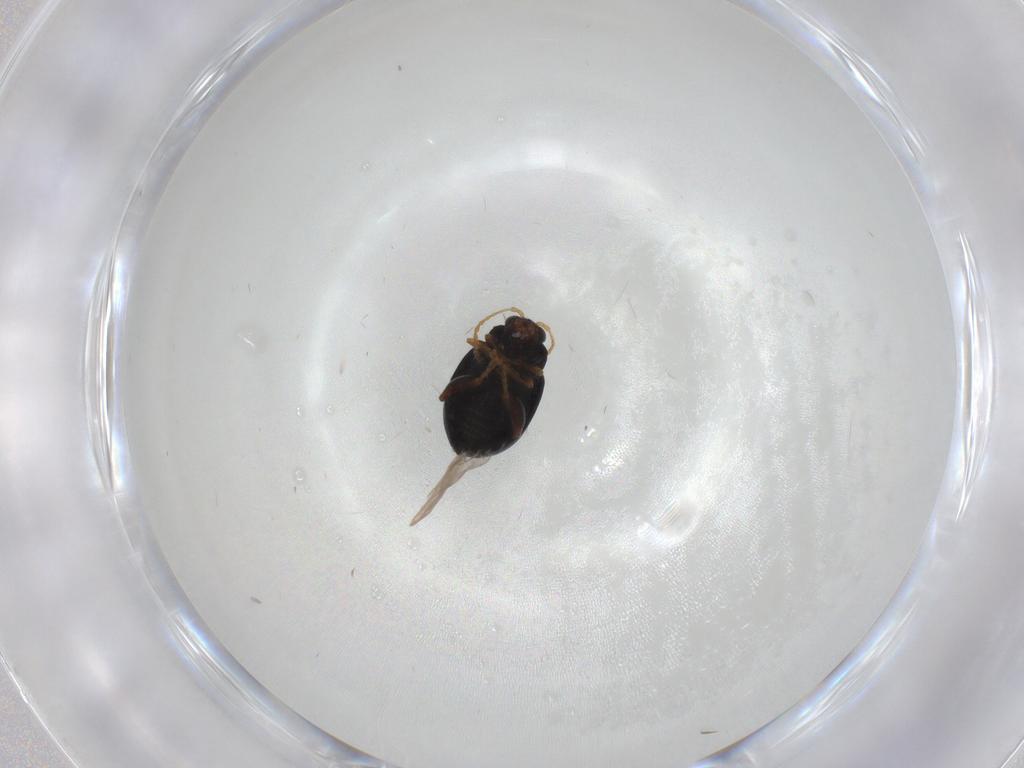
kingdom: Animalia
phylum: Arthropoda
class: Insecta
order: Coleoptera
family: Chrysomelidae
